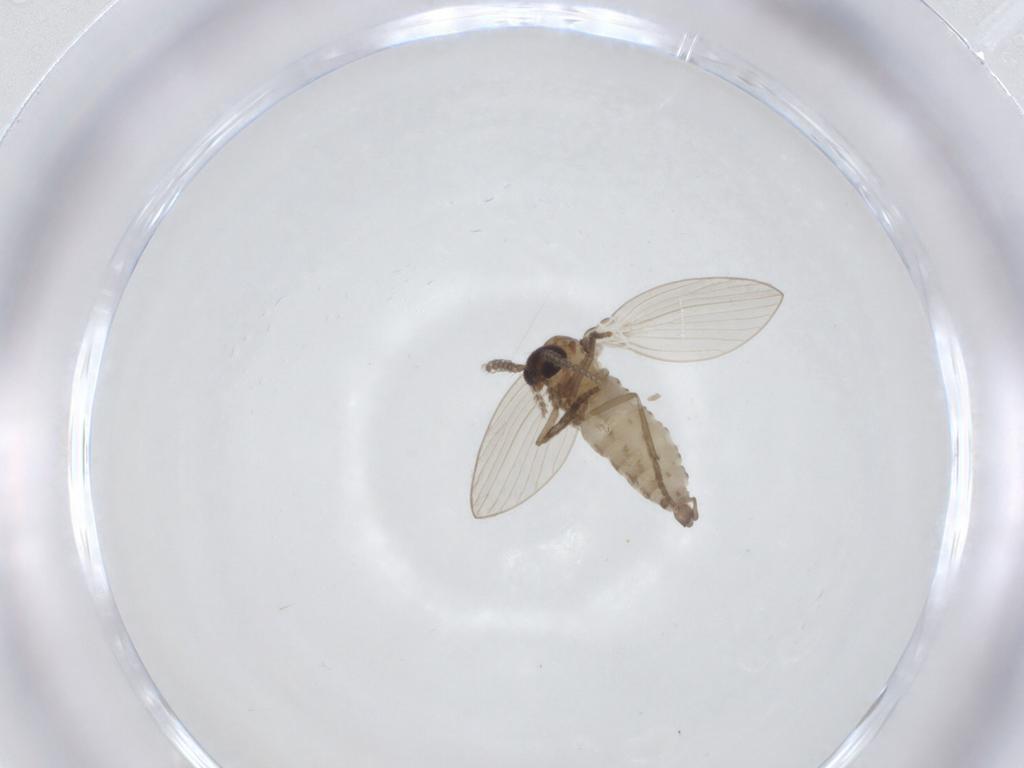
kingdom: Animalia
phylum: Arthropoda
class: Insecta
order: Diptera
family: Psychodidae
